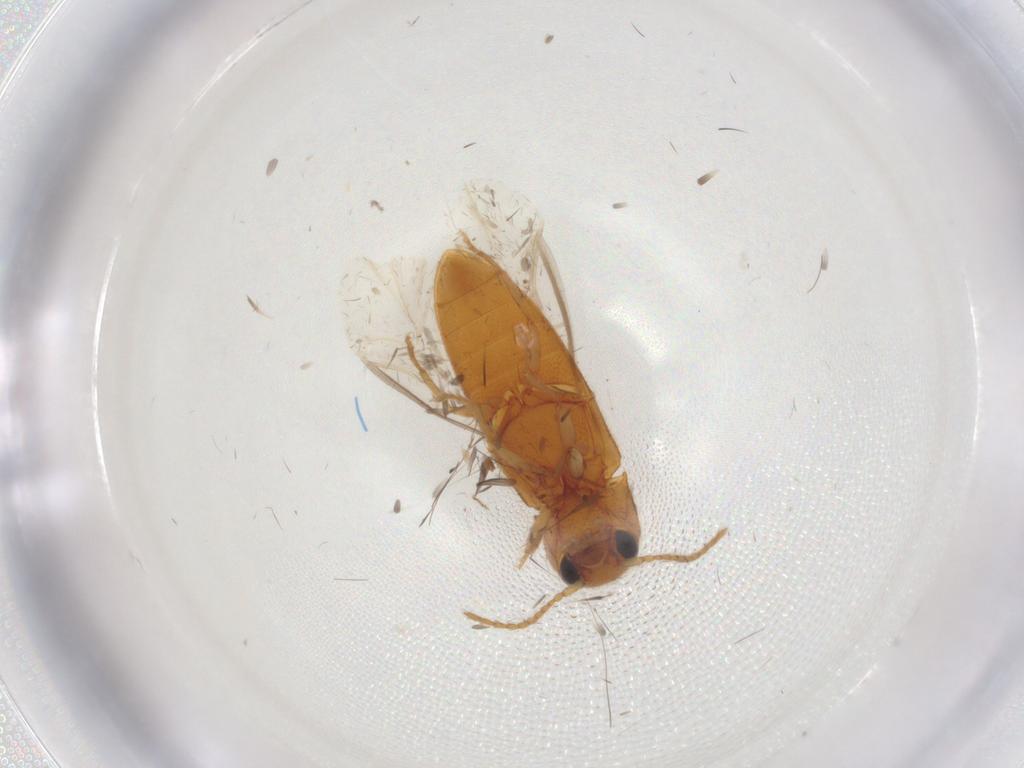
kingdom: Animalia
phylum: Arthropoda
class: Insecta
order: Coleoptera
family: Elateridae
